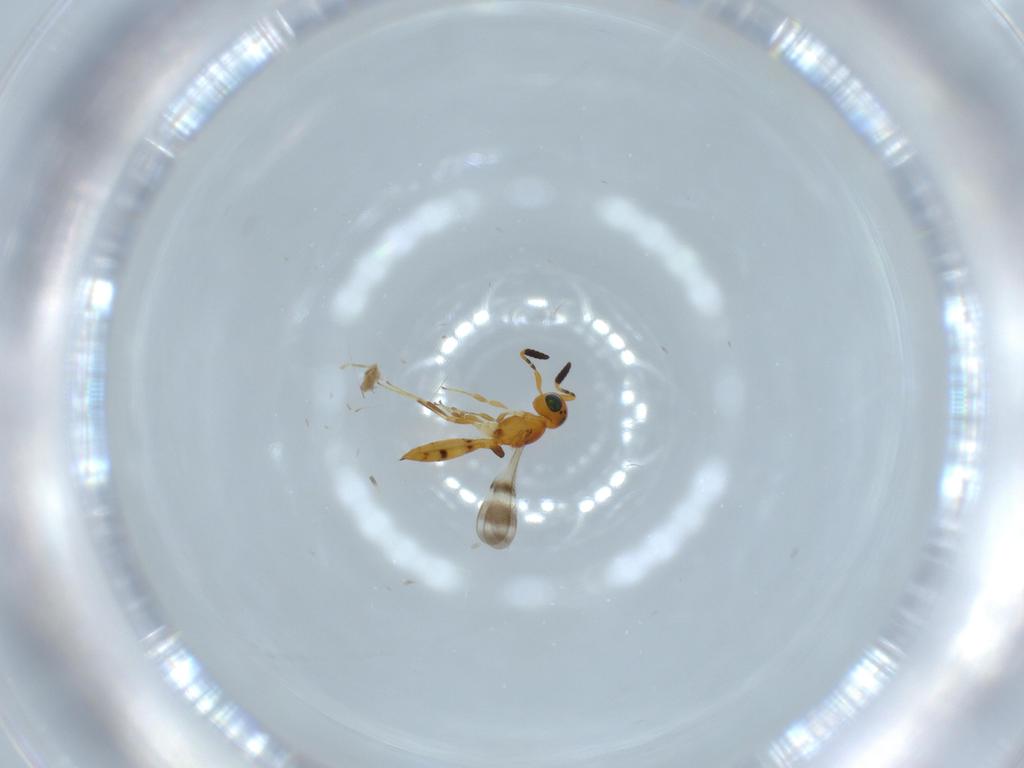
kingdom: Animalia
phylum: Arthropoda
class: Insecta
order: Hymenoptera
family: Scelionidae
